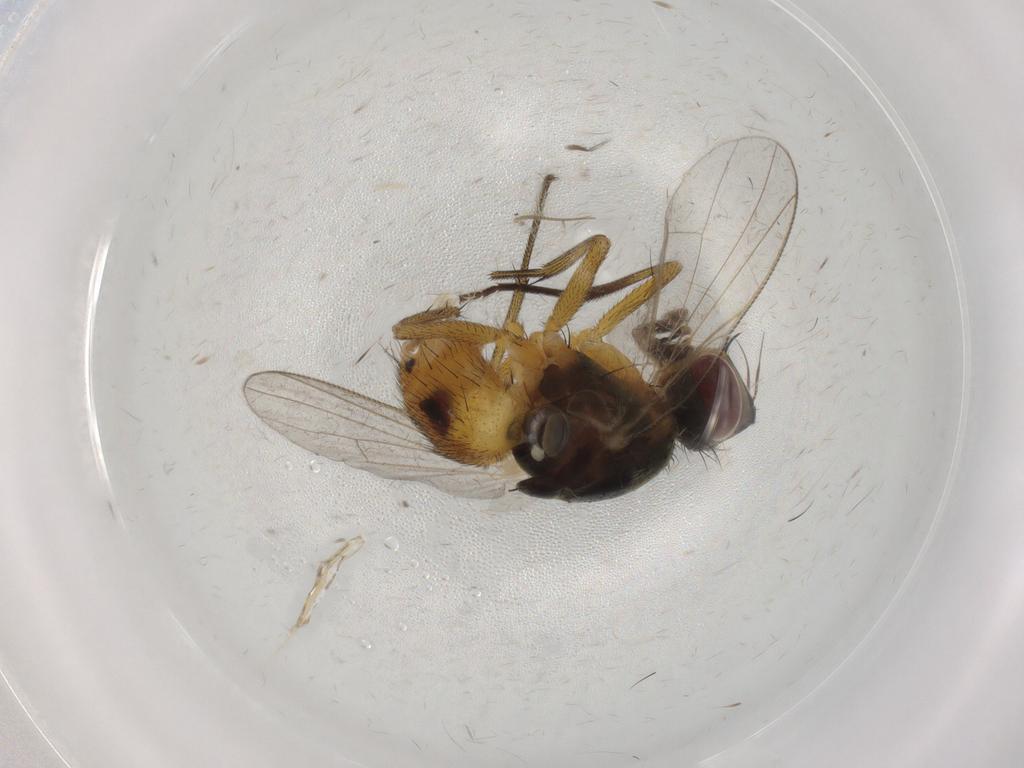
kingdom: Animalia
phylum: Arthropoda
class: Insecta
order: Diptera
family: Muscidae
